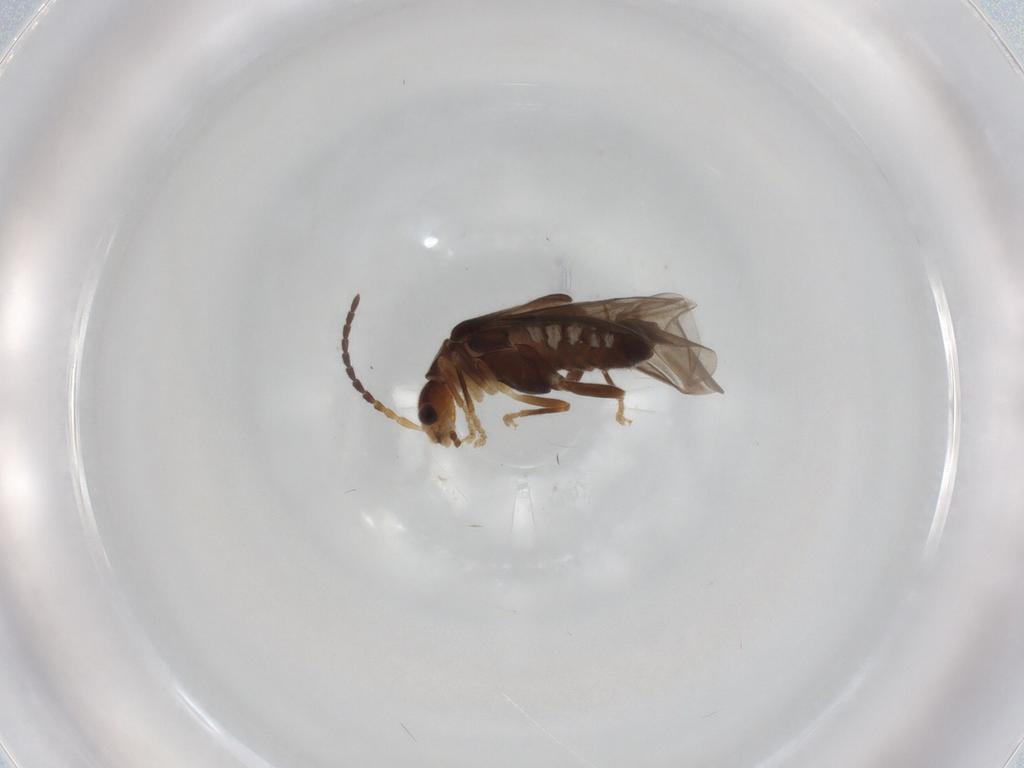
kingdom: Animalia
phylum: Arthropoda
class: Insecta
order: Coleoptera
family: Cantharidae
